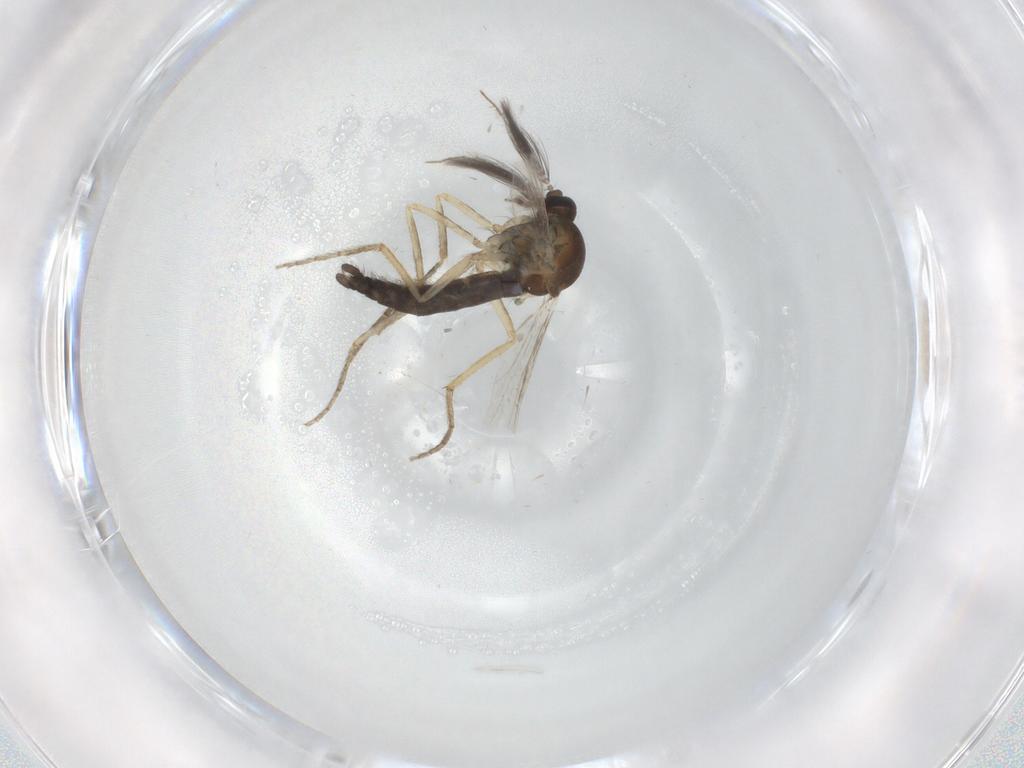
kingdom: Animalia
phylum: Arthropoda
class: Insecta
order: Diptera
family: Ceratopogonidae
